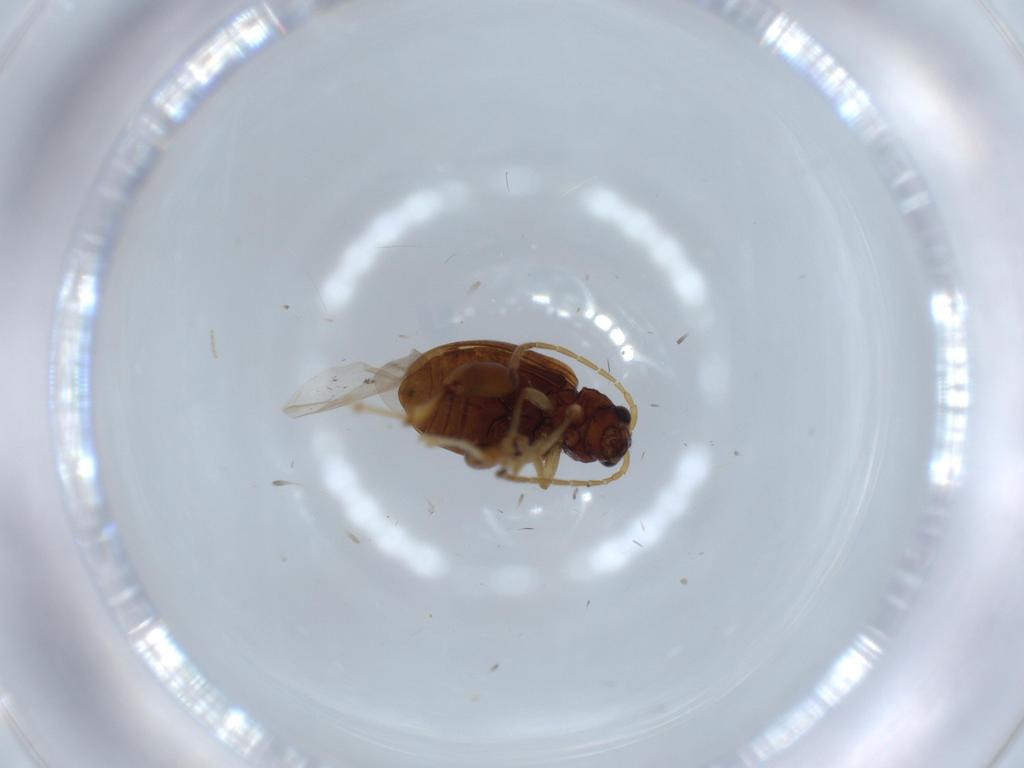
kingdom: Animalia
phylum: Arthropoda
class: Insecta
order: Coleoptera
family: Chrysomelidae
